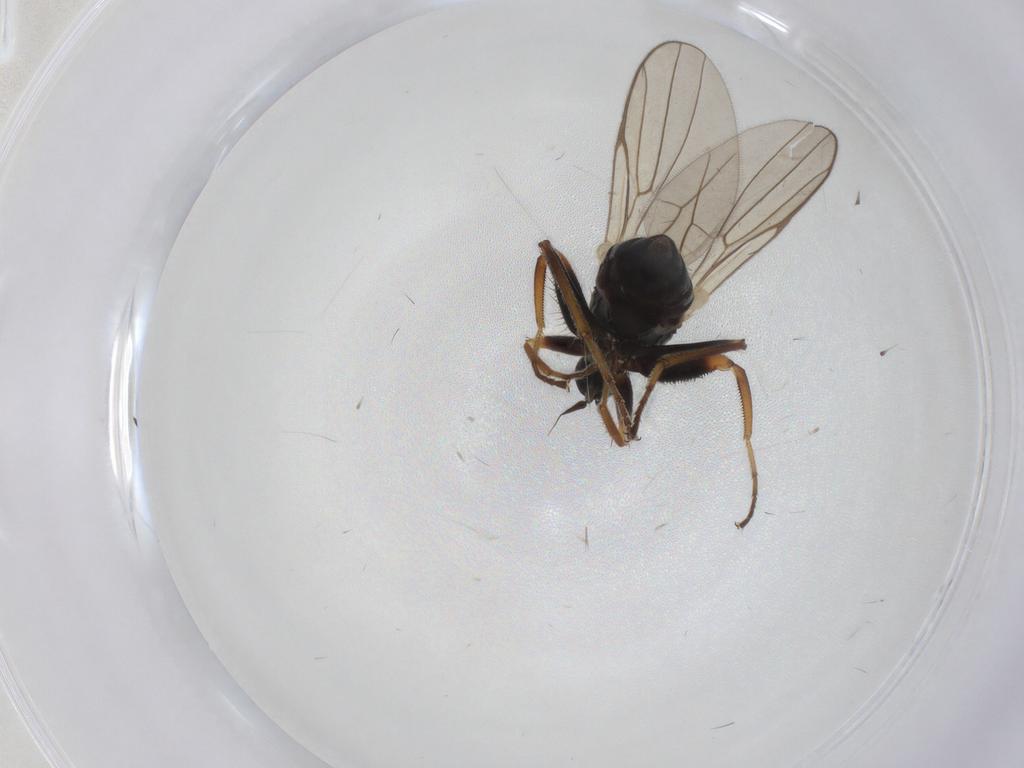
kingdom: Animalia
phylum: Arthropoda
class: Insecta
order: Diptera
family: Hybotidae
